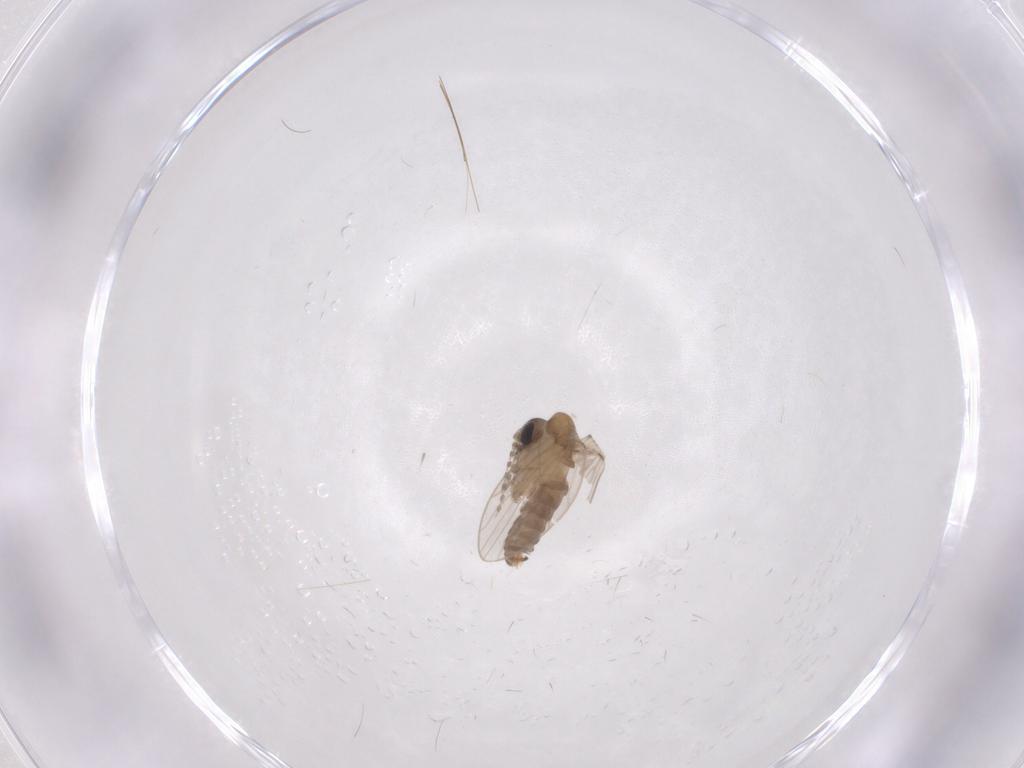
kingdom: Animalia
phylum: Arthropoda
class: Insecta
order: Diptera
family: Psychodidae
